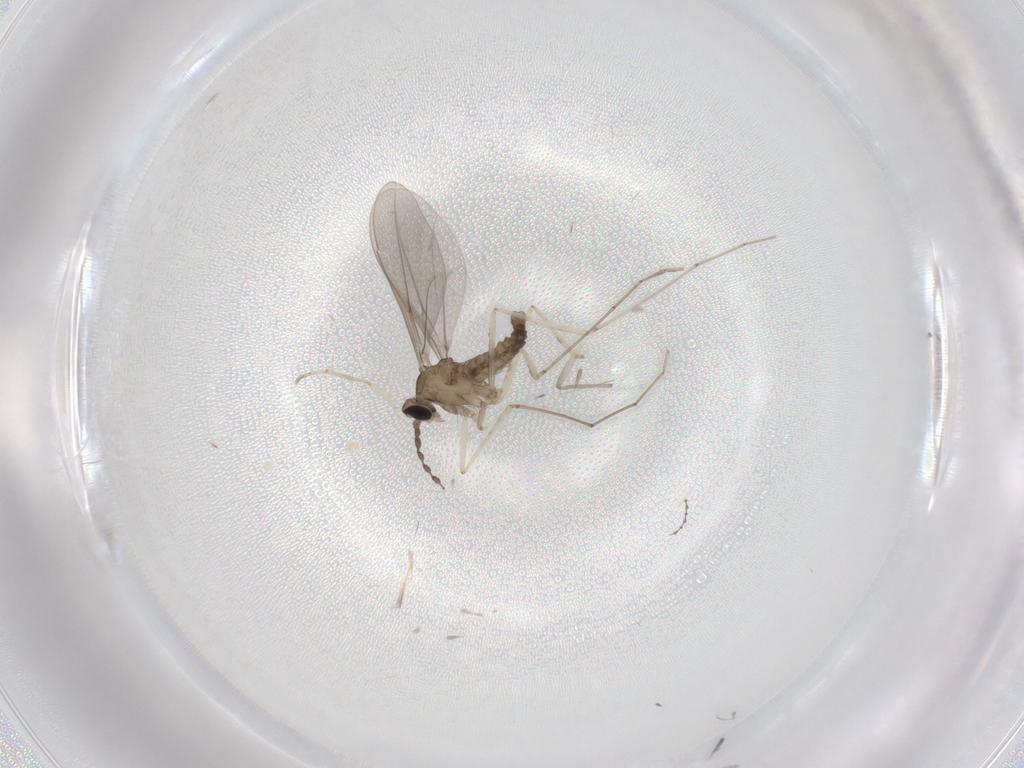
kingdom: Animalia
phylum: Arthropoda
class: Insecta
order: Diptera
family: Cecidomyiidae
